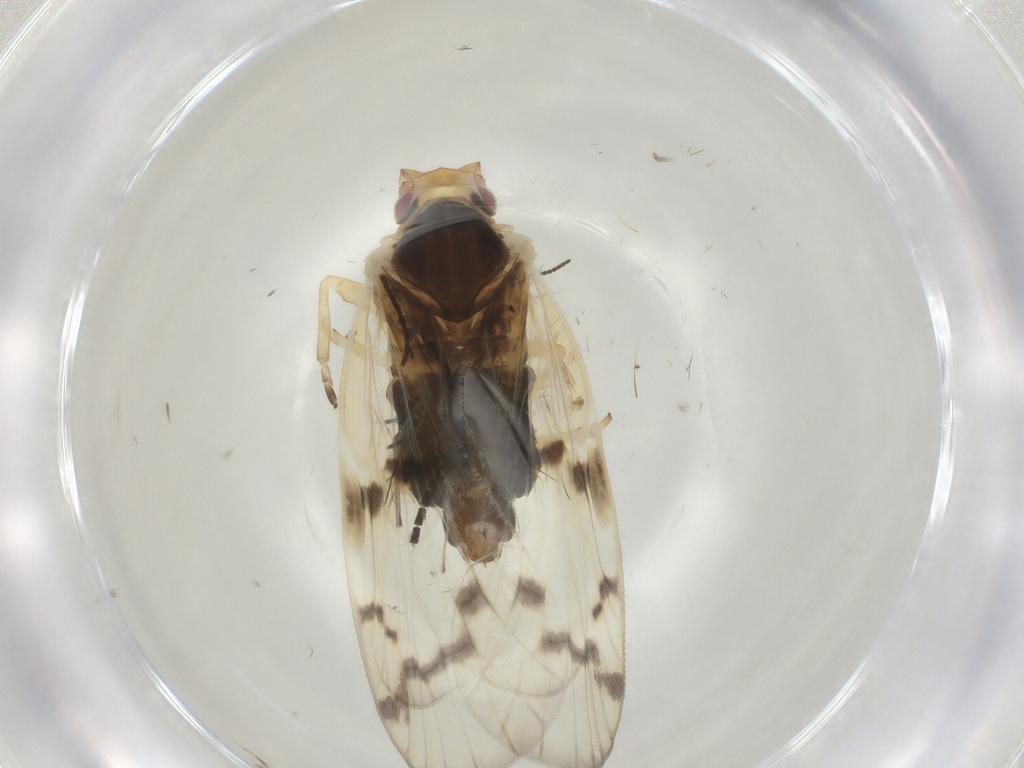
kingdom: Animalia
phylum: Arthropoda
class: Insecta
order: Hemiptera
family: Cixiidae
